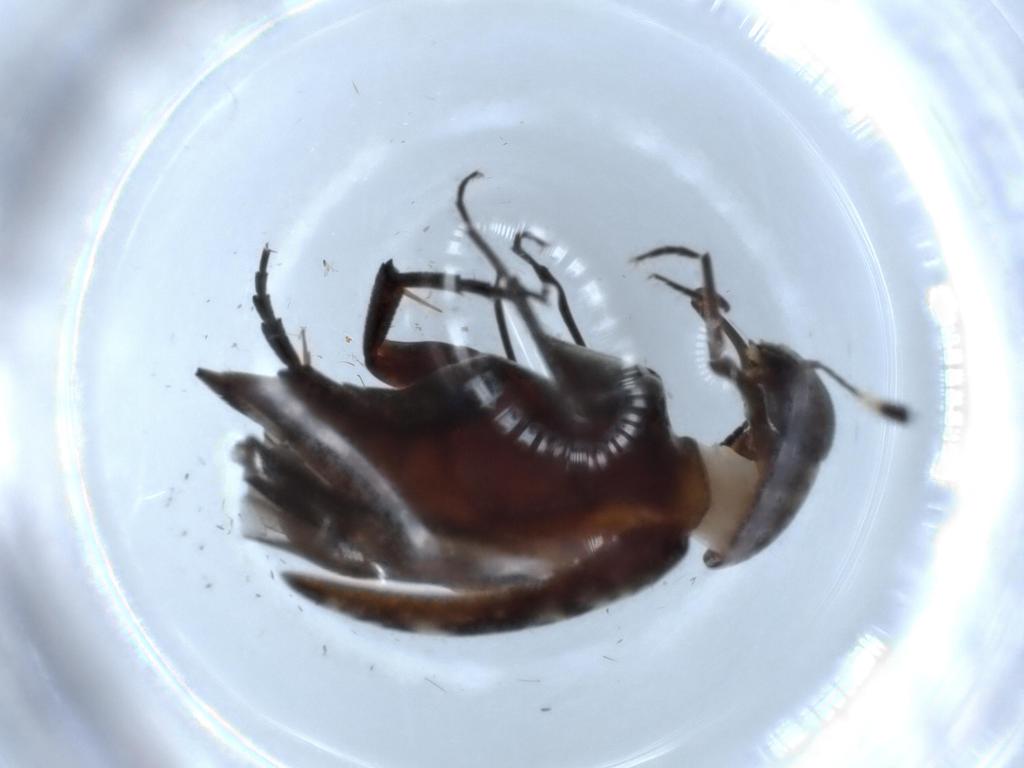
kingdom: Animalia
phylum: Arthropoda
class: Insecta
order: Coleoptera
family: Mordellidae
